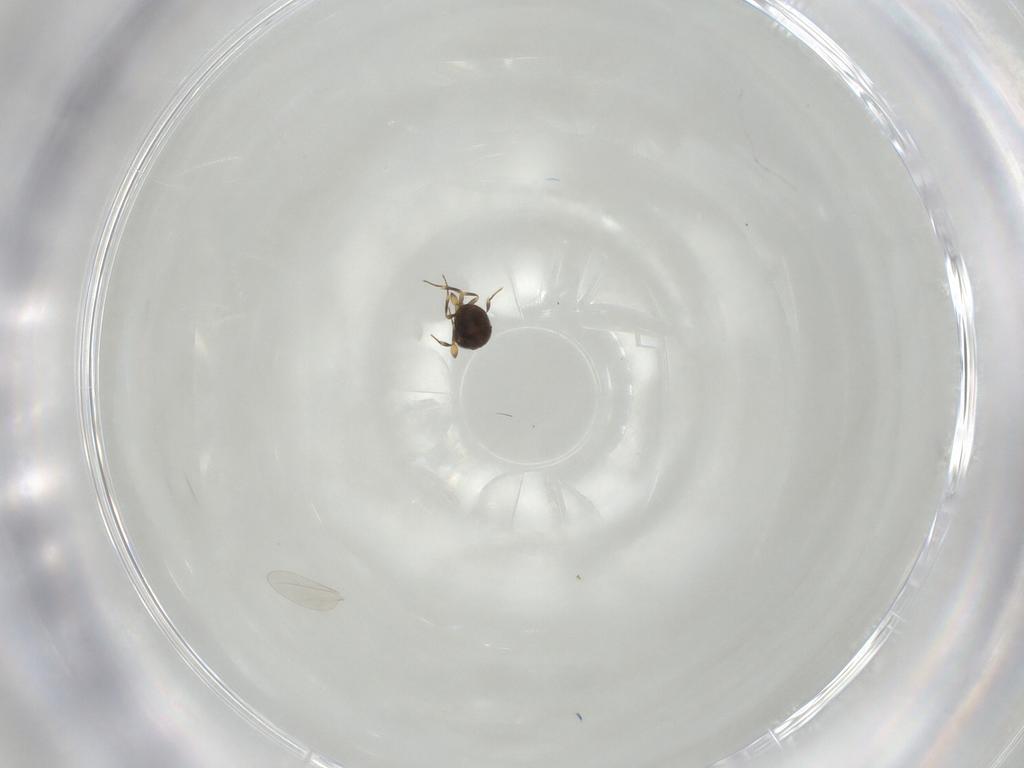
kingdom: Animalia
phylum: Arthropoda
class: Insecta
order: Hymenoptera
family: Scelionidae
